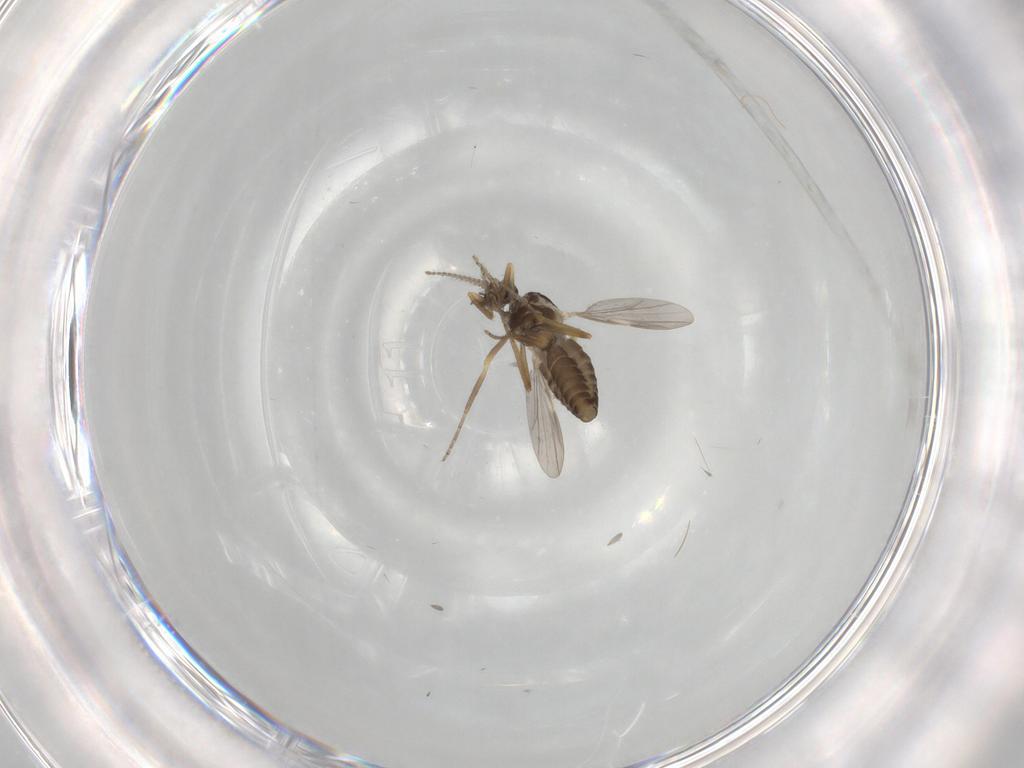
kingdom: Animalia
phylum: Arthropoda
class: Insecta
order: Diptera
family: Ceratopogonidae
